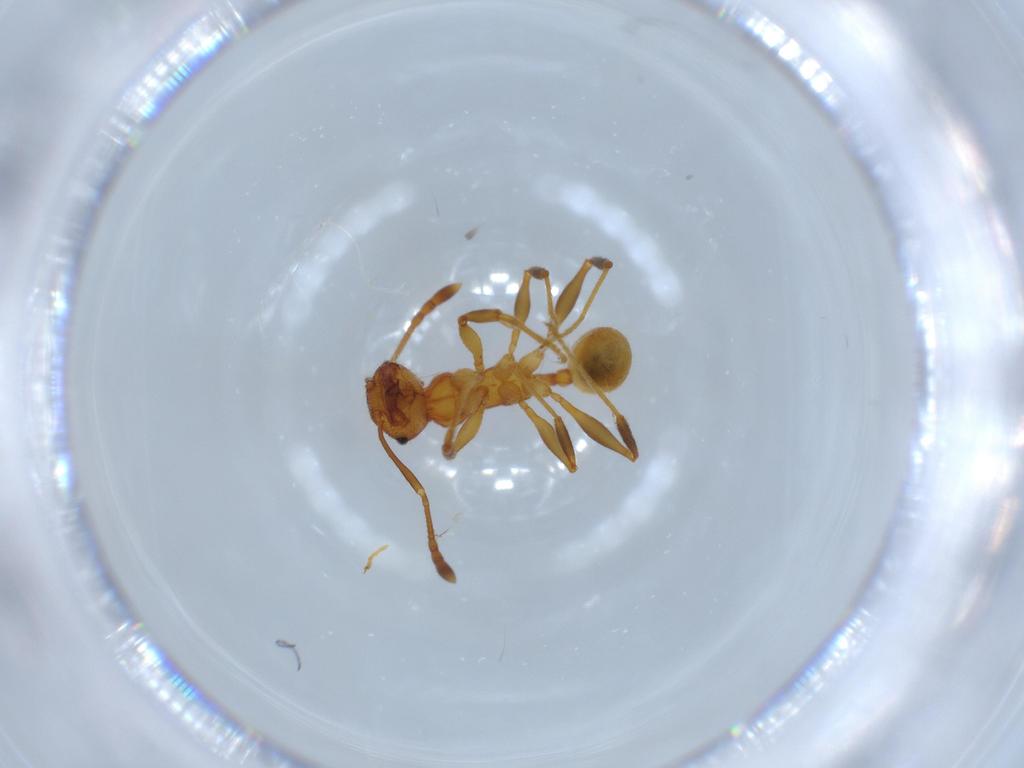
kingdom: Animalia
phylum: Arthropoda
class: Insecta
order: Hymenoptera
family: Formicidae
